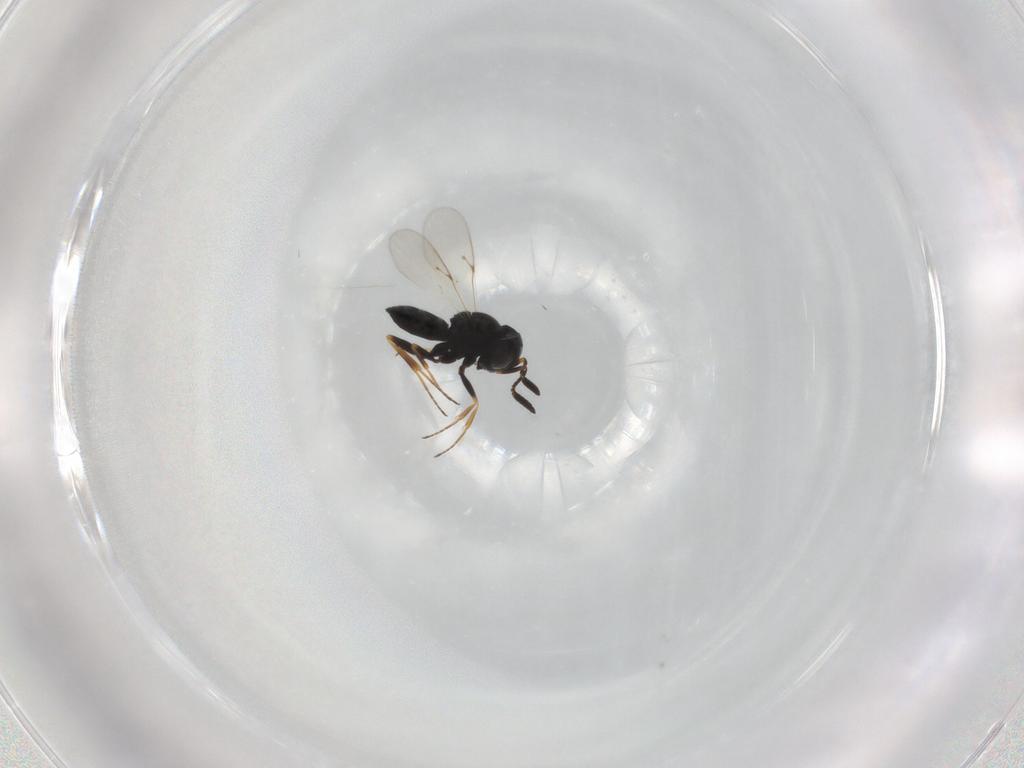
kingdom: Animalia
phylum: Arthropoda
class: Insecta
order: Hymenoptera
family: Scelionidae
